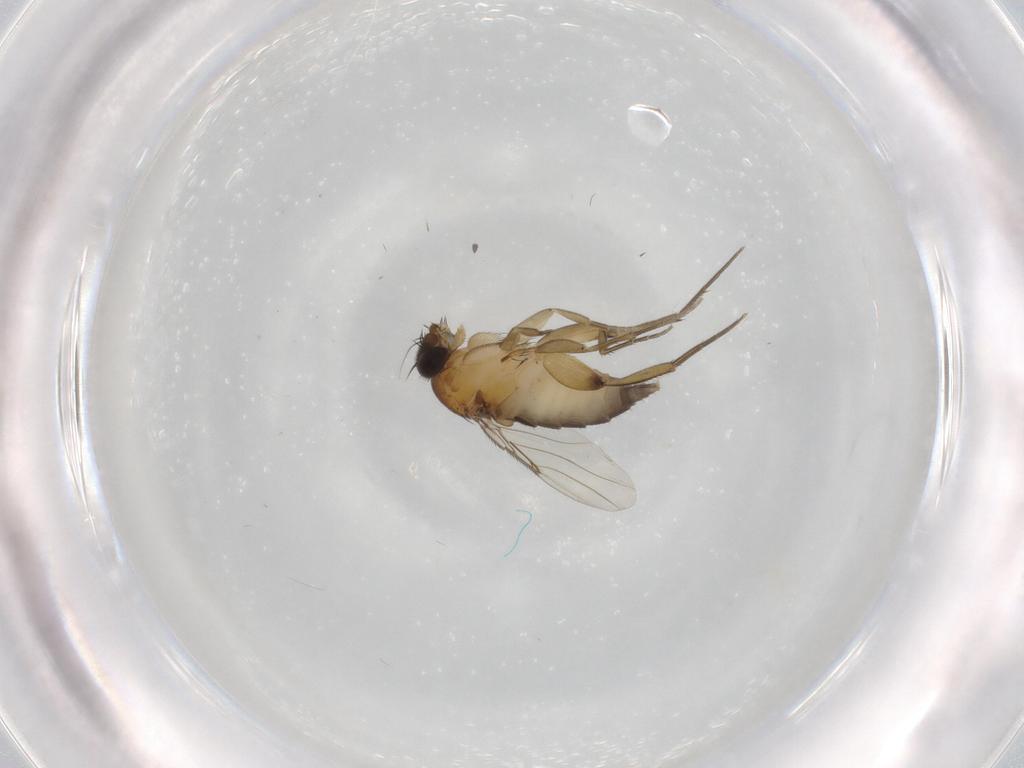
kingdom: Animalia
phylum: Arthropoda
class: Insecta
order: Diptera
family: Phoridae
